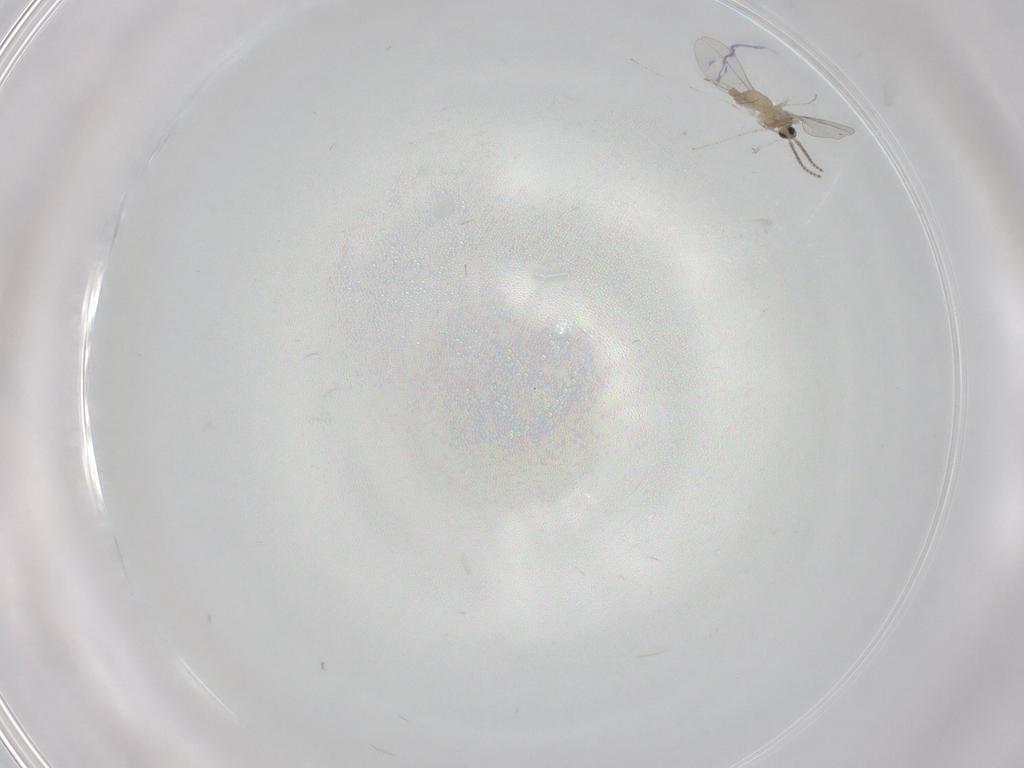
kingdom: Animalia
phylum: Arthropoda
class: Insecta
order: Diptera
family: Cecidomyiidae
